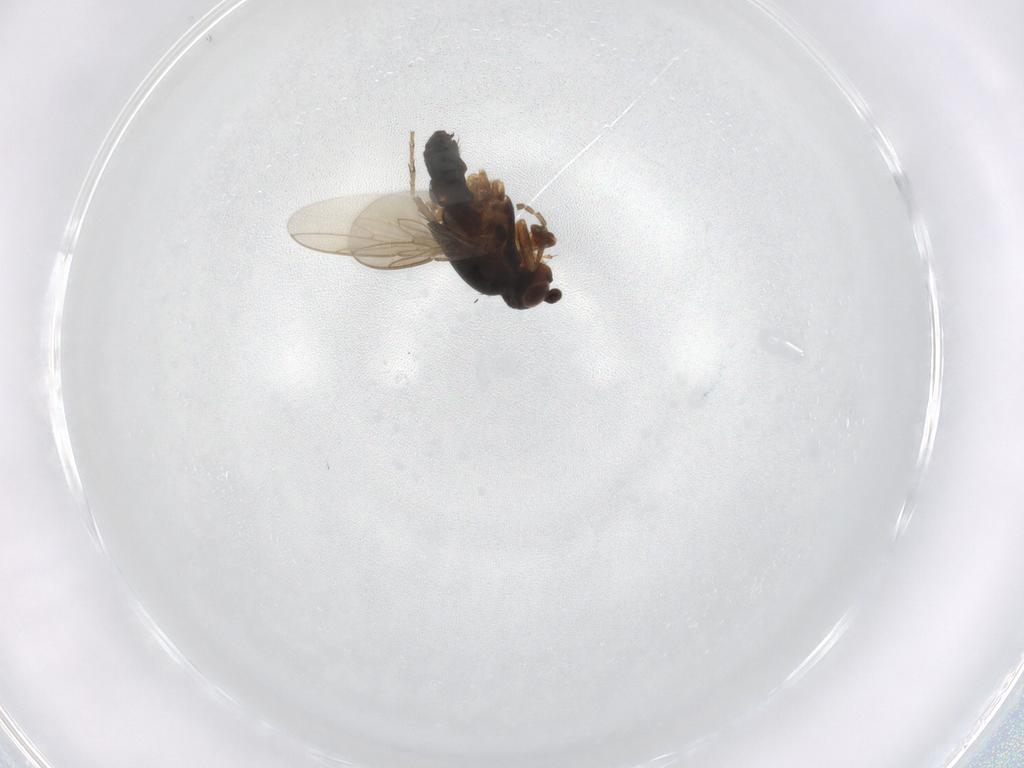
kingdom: Animalia
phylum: Arthropoda
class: Insecta
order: Diptera
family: Sphaeroceridae
